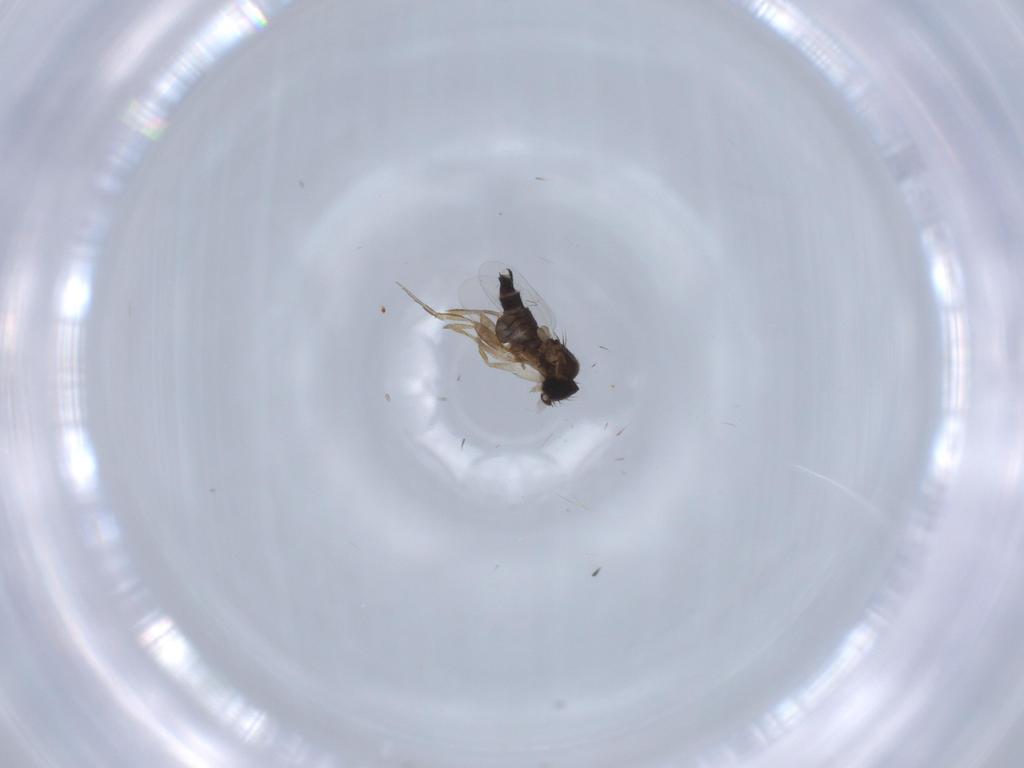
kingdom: Animalia
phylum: Arthropoda
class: Insecta
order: Diptera
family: Phoridae
